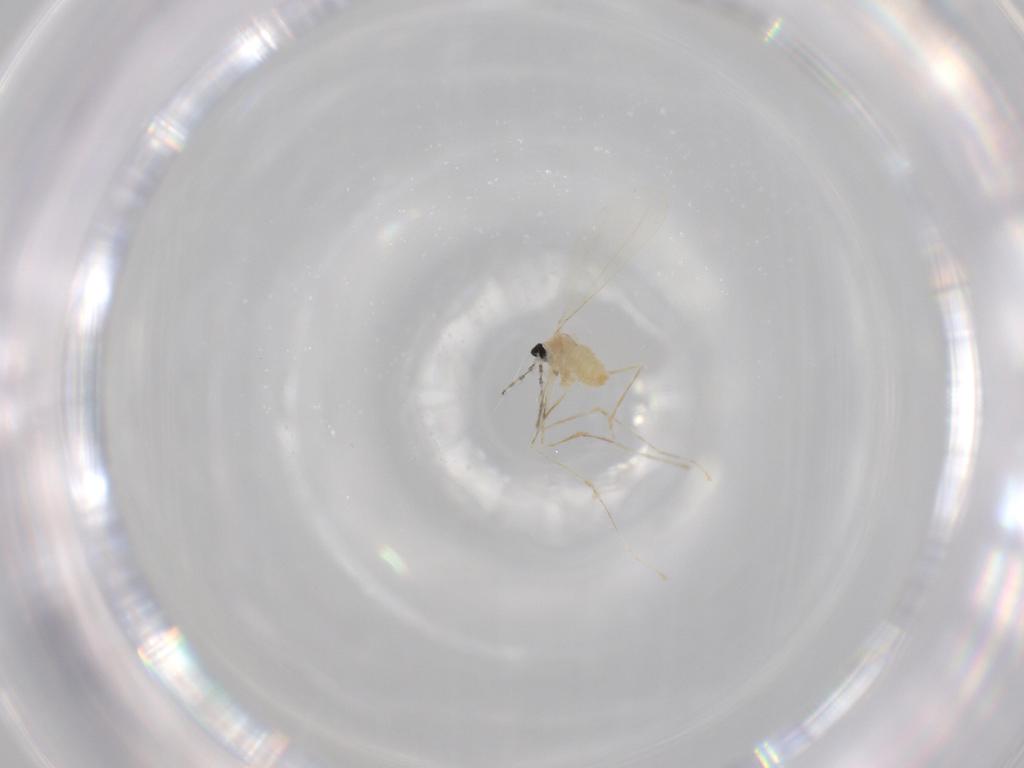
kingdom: Animalia
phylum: Arthropoda
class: Insecta
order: Diptera
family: Cecidomyiidae
